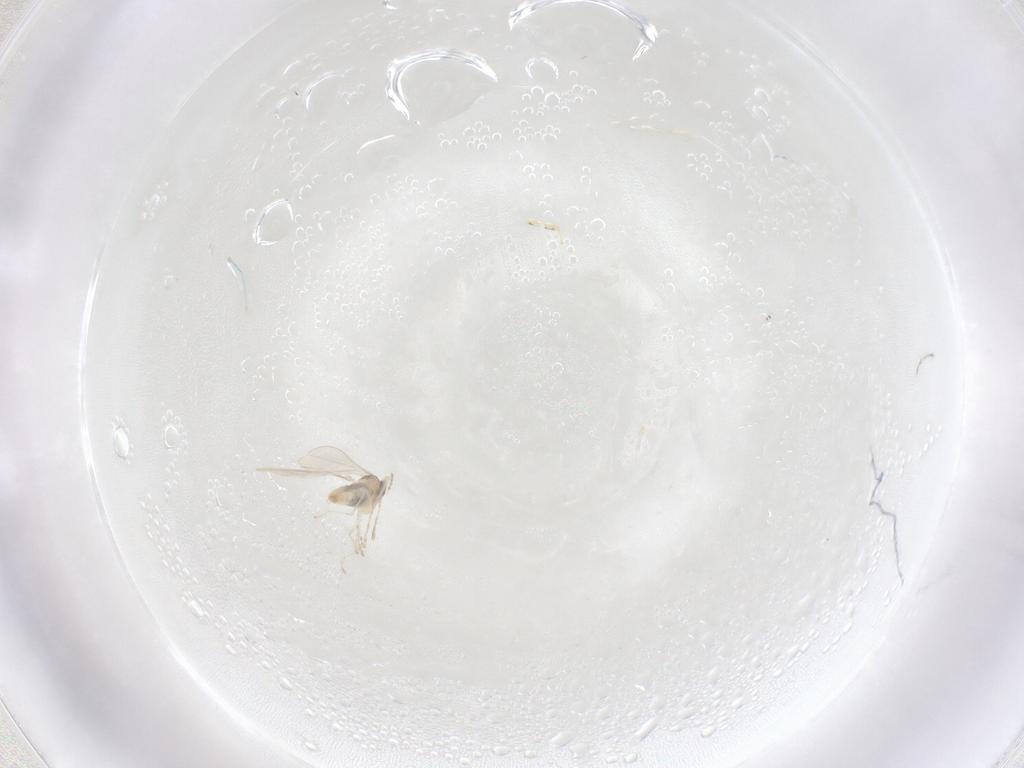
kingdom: Animalia
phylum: Arthropoda
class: Insecta
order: Diptera
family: Cecidomyiidae
